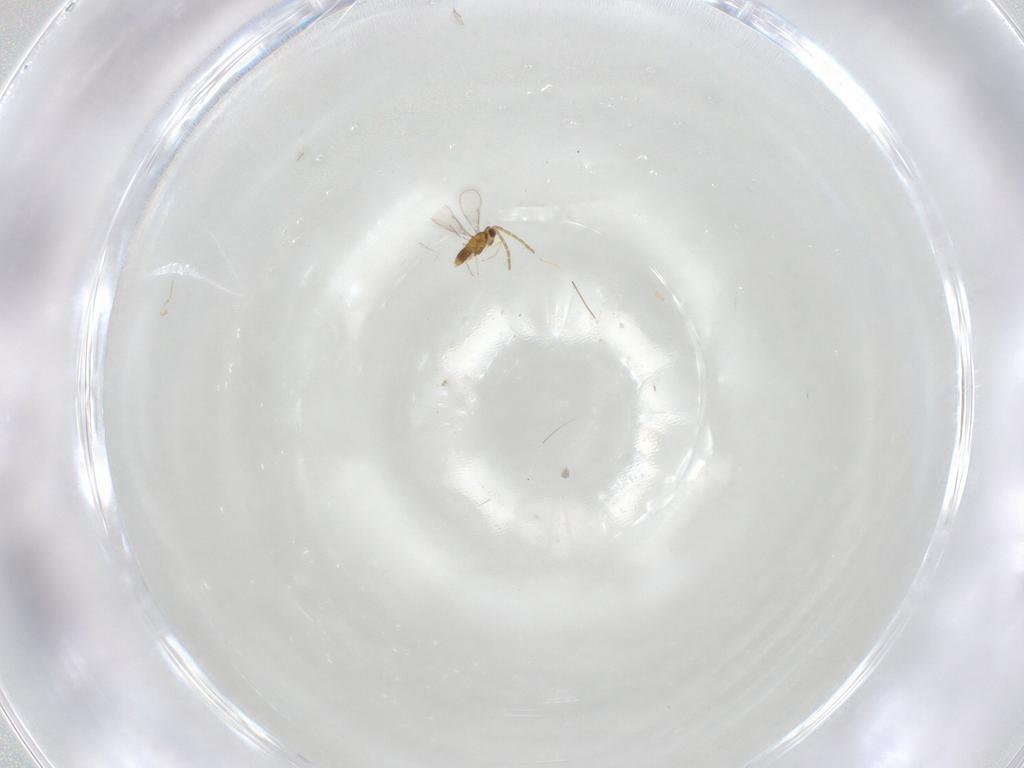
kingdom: Animalia
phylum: Arthropoda
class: Insecta
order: Hymenoptera
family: Aphelinidae
